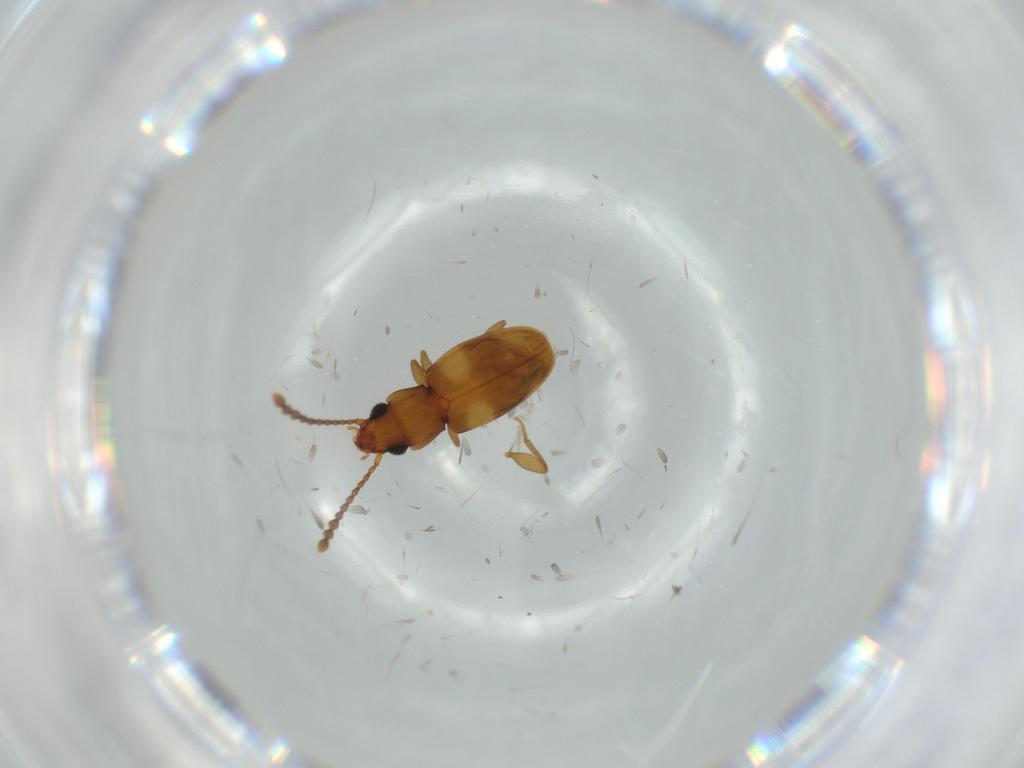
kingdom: Animalia
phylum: Arthropoda
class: Insecta
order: Coleoptera
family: Laemophloeidae
